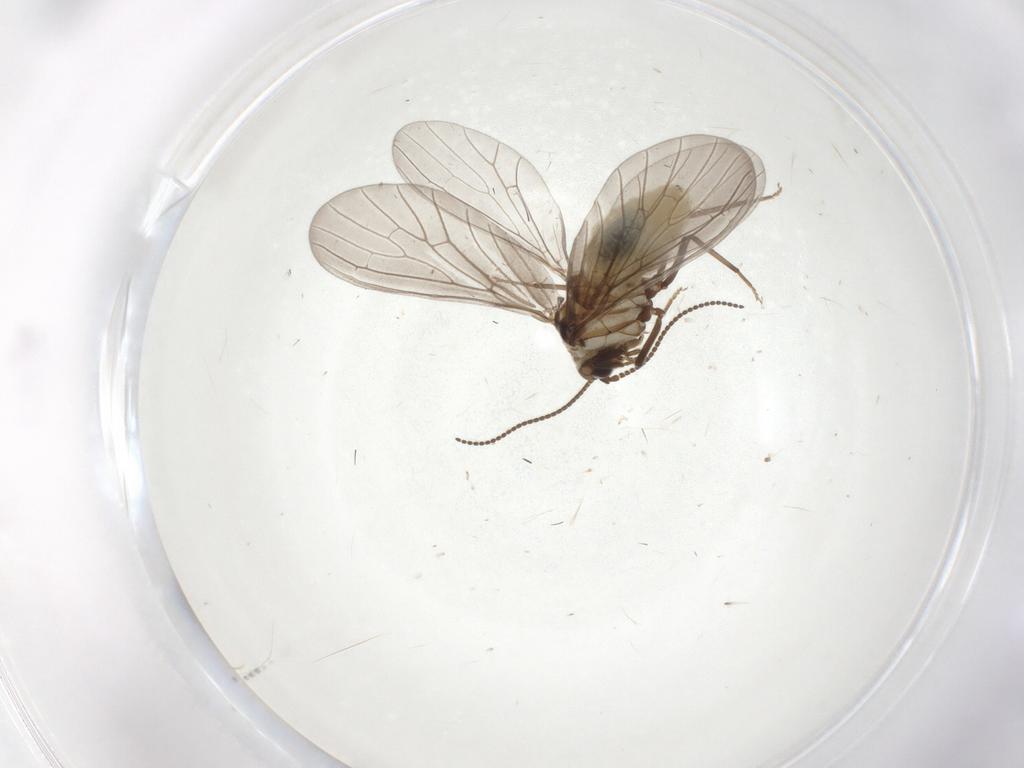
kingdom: Animalia
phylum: Arthropoda
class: Insecta
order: Neuroptera
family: Coniopterygidae
